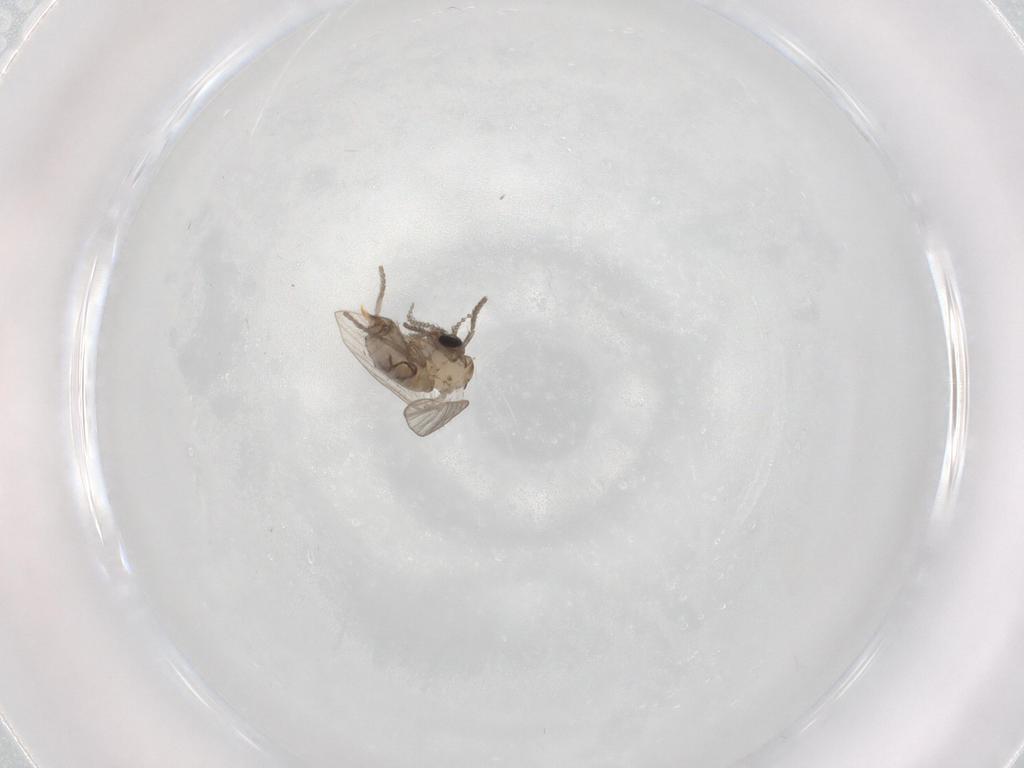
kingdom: Animalia
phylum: Arthropoda
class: Insecta
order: Diptera
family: Psychodidae
